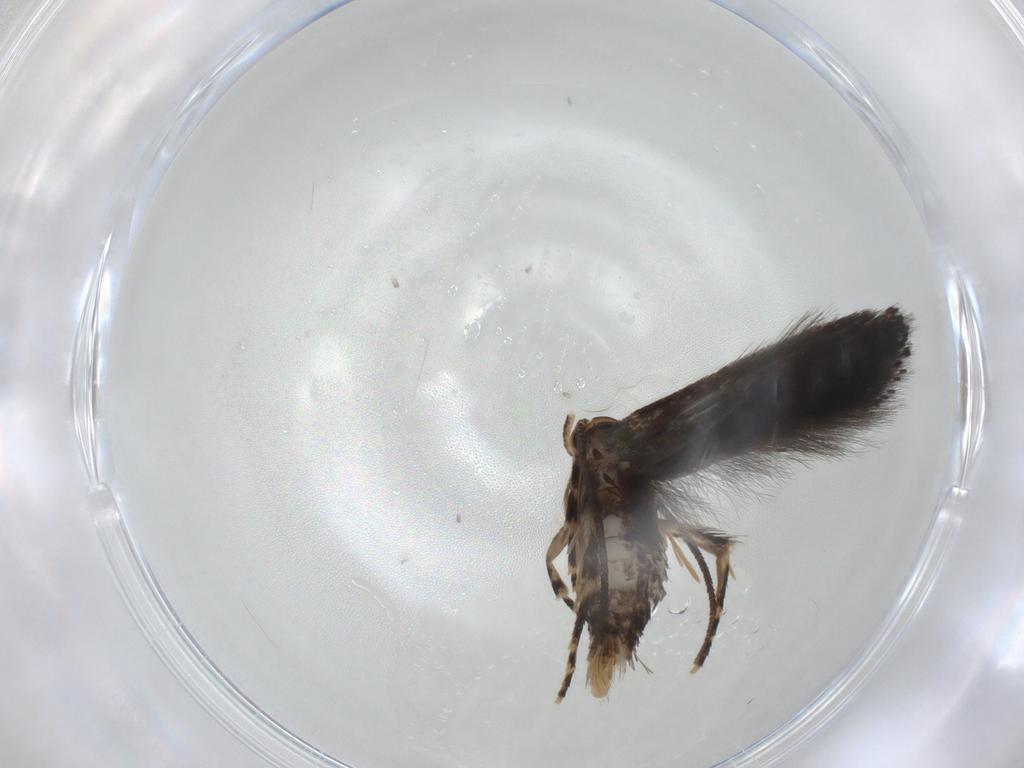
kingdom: Animalia
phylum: Arthropoda
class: Insecta
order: Lepidoptera
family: Elachistidae
